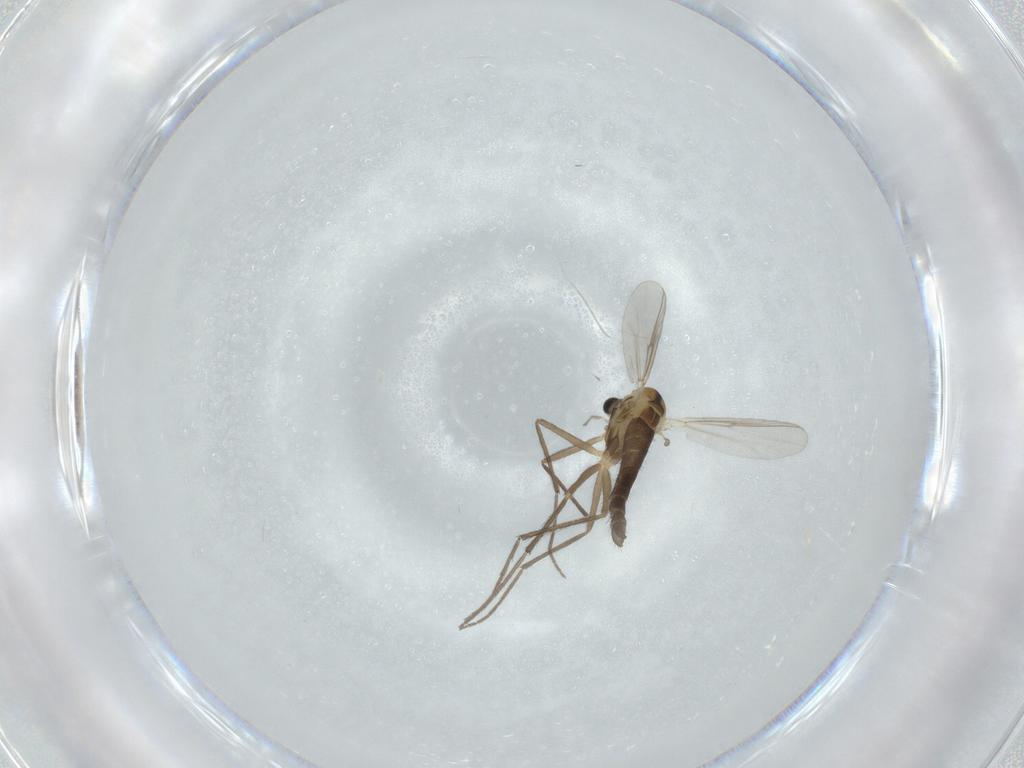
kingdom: Animalia
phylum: Arthropoda
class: Insecta
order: Diptera
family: Chironomidae
